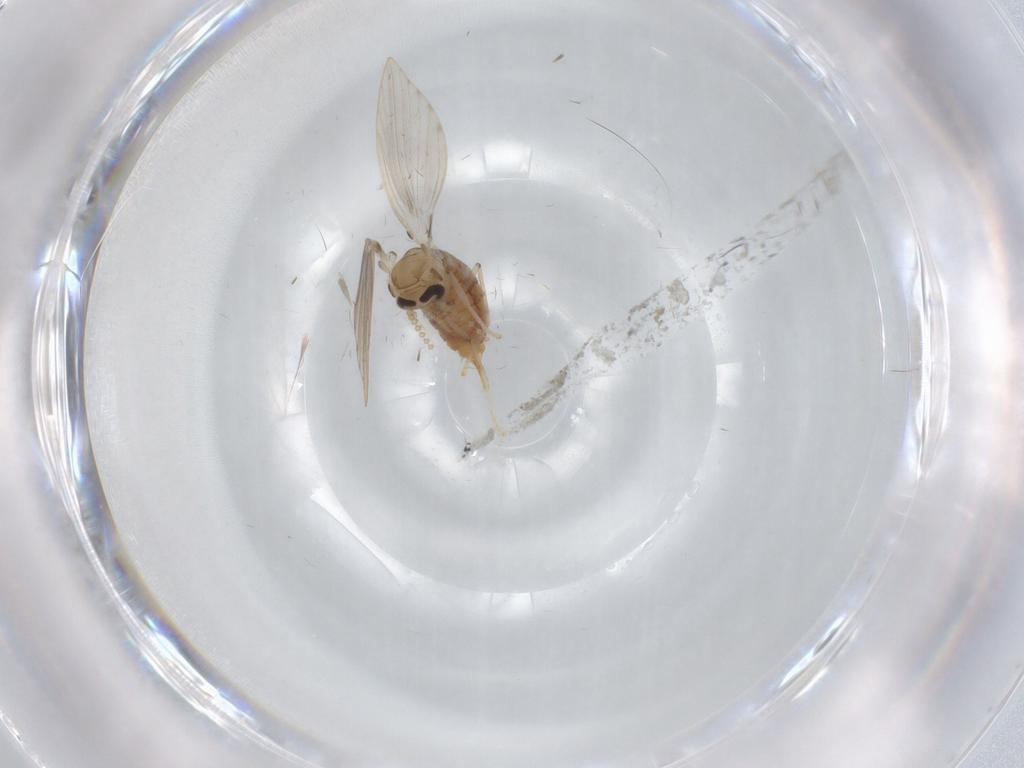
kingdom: Animalia
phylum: Arthropoda
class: Insecta
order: Diptera
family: Psychodidae
